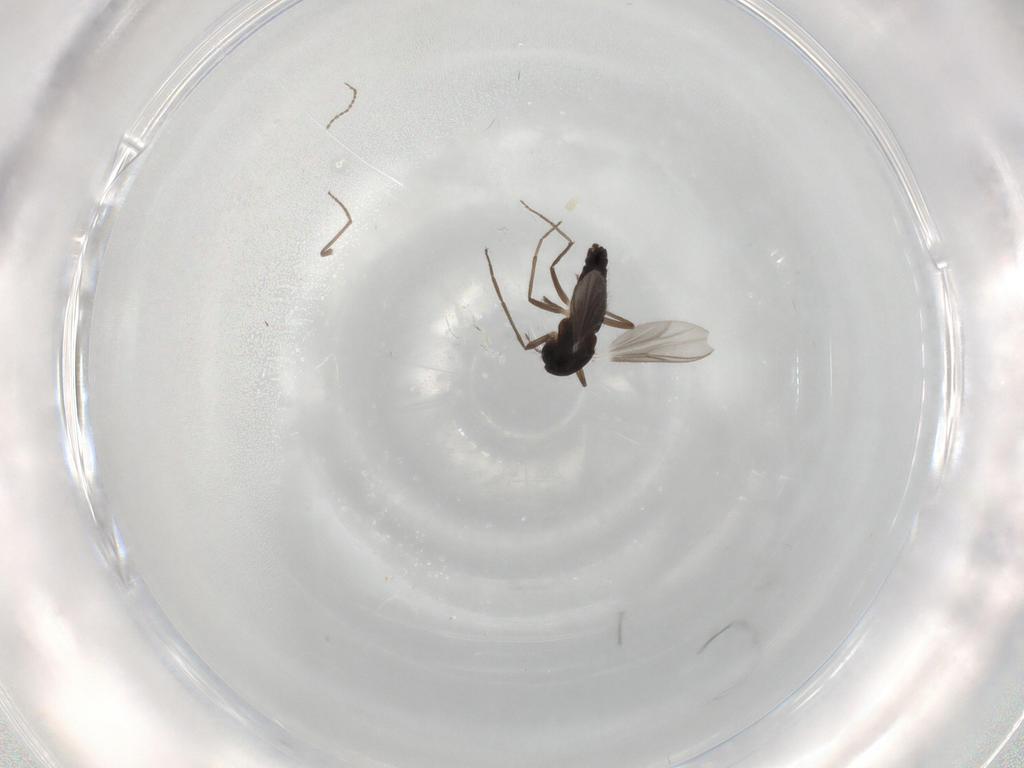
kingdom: Animalia
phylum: Arthropoda
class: Insecta
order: Diptera
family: Chironomidae
